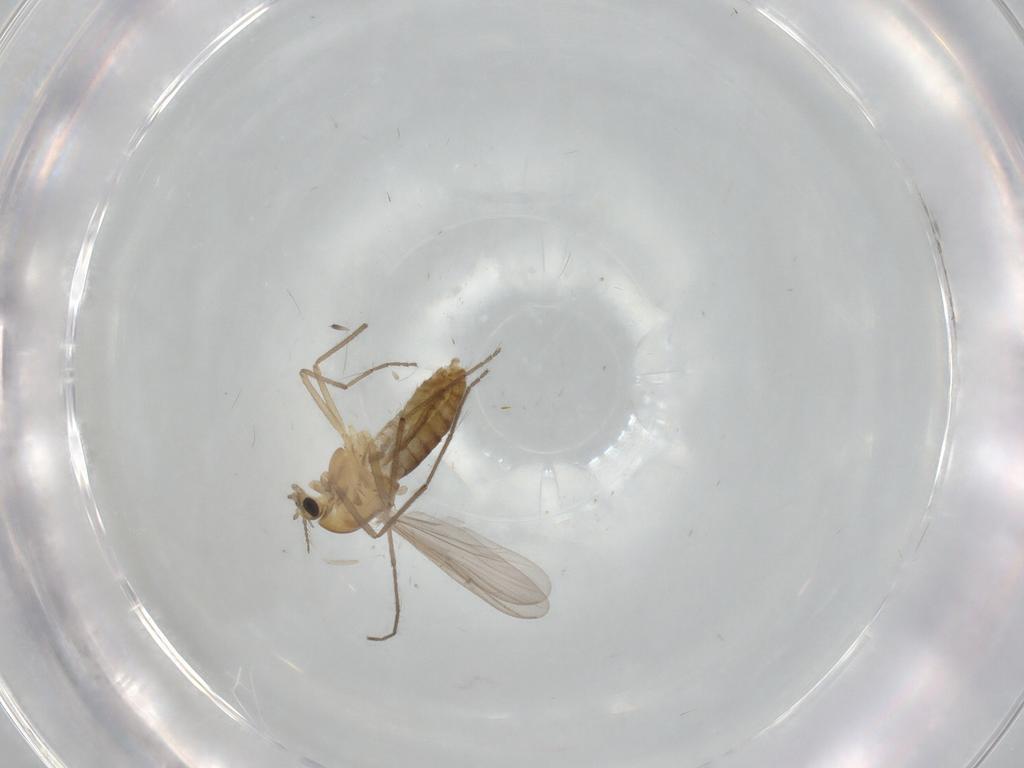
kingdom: Animalia
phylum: Arthropoda
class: Insecta
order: Diptera
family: Chironomidae
